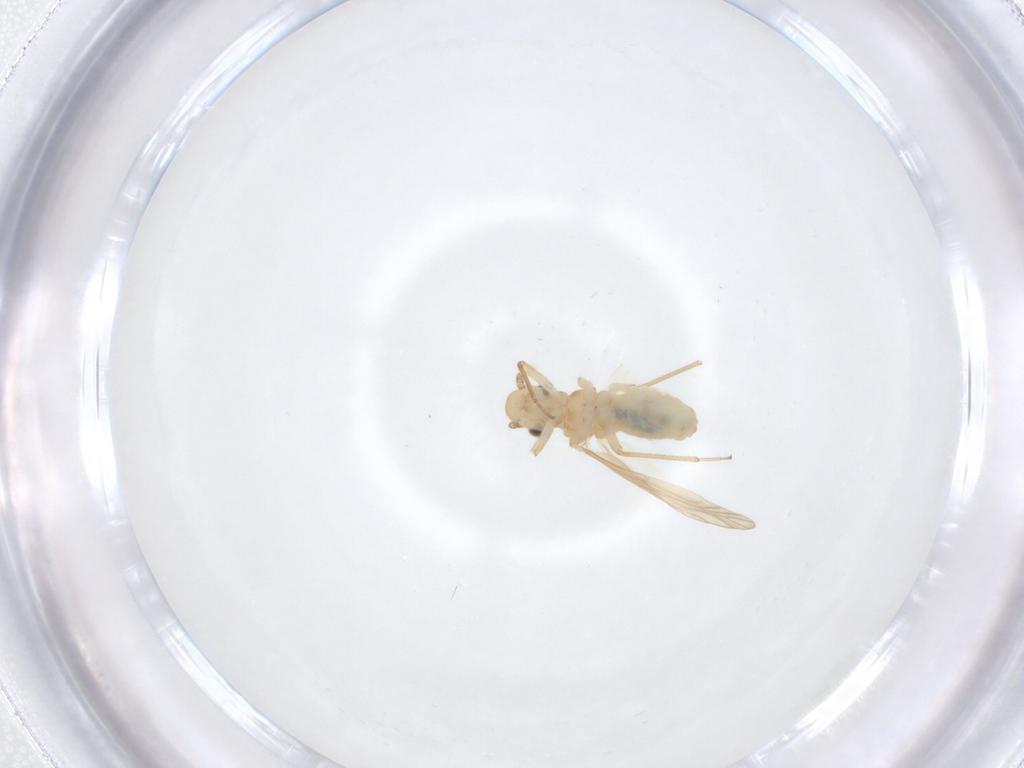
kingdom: Animalia
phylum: Arthropoda
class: Insecta
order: Psocodea
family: Caeciliusidae
